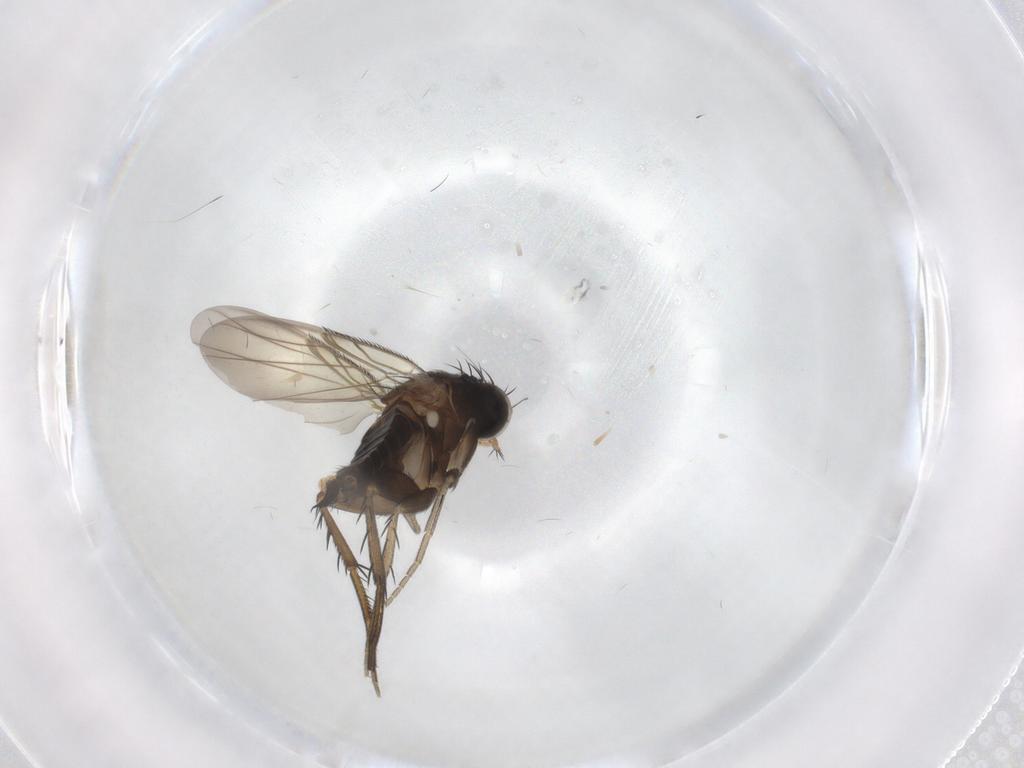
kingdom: Animalia
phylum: Arthropoda
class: Insecta
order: Diptera
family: Phoridae
